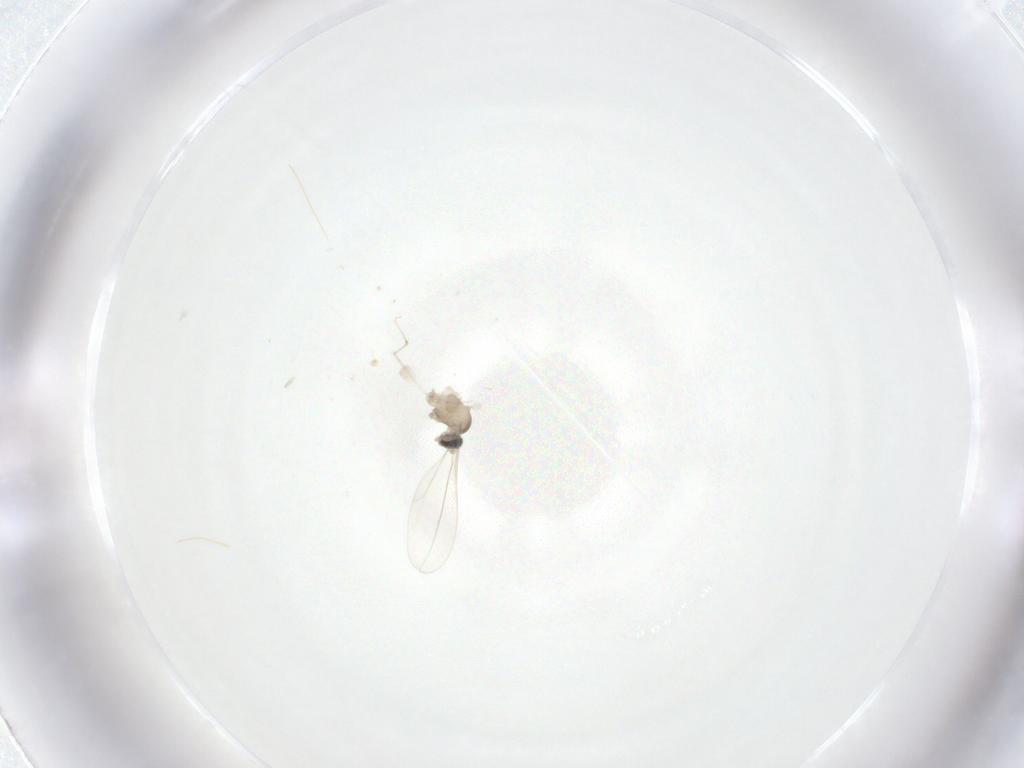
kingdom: Animalia
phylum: Arthropoda
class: Insecta
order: Diptera
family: Cecidomyiidae
